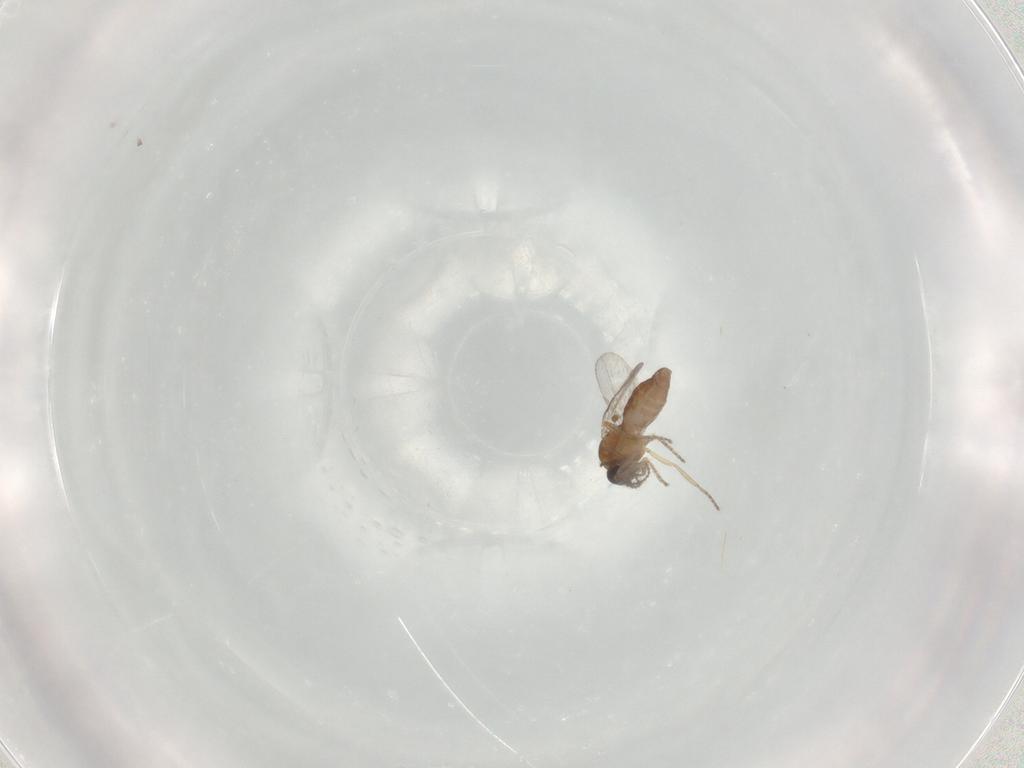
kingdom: Animalia
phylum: Arthropoda
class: Insecta
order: Diptera
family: Ceratopogonidae
